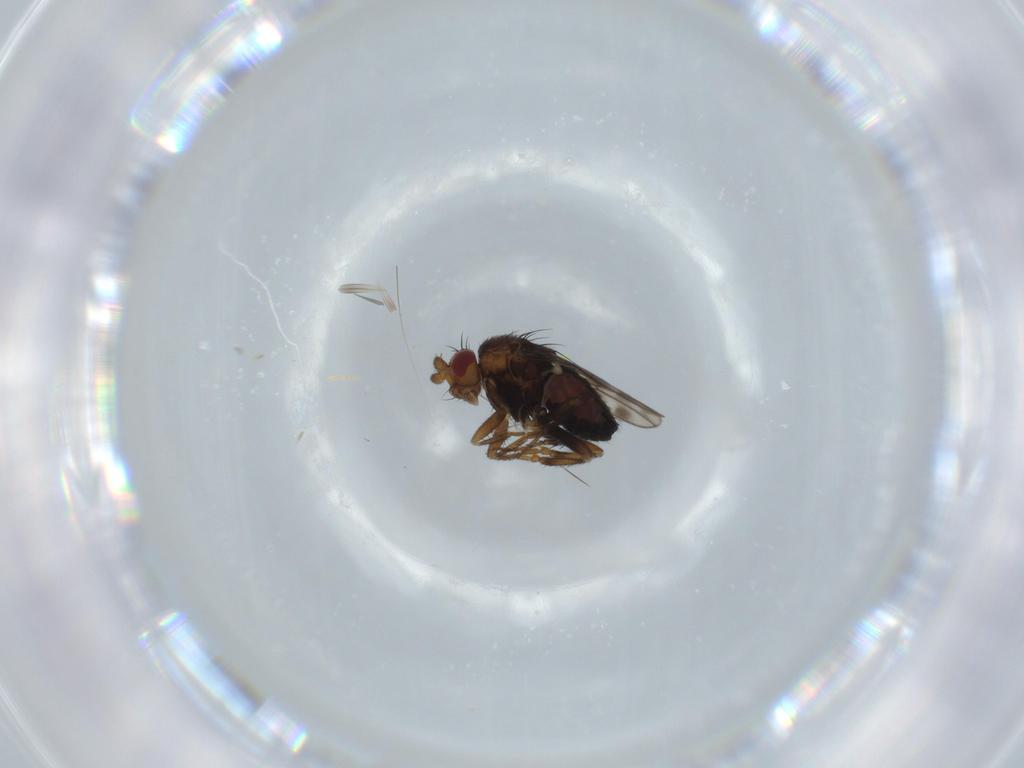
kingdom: Animalia
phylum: Arthropoda
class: Insecta
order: Diptera
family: Sphaeroceridae
